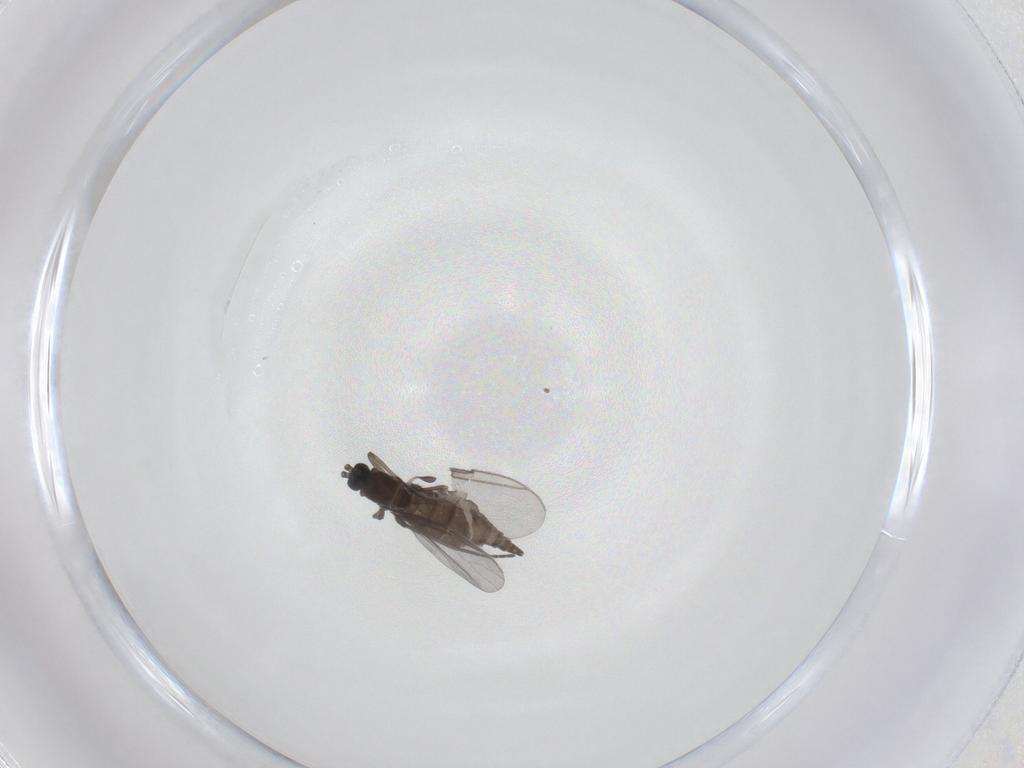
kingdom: Animalia
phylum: Arthropoda
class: Insecta
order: Diptera
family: Sciaridae
